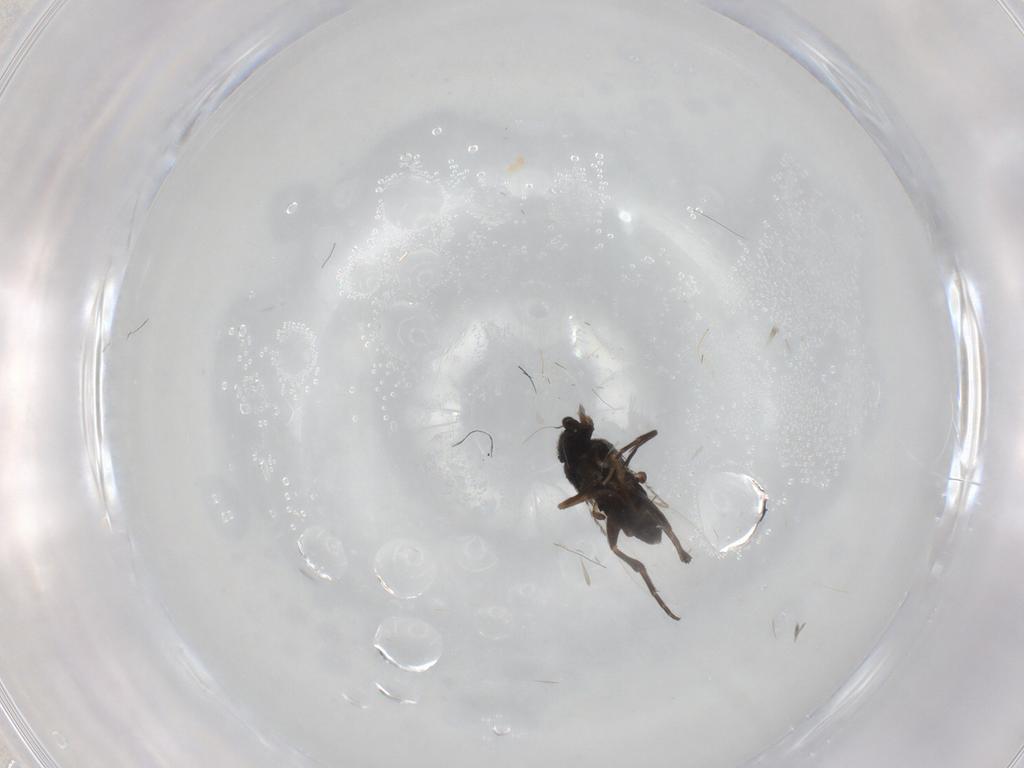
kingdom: Animalia
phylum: Arthropoda
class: Insecta
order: Diptera
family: Phoridae
